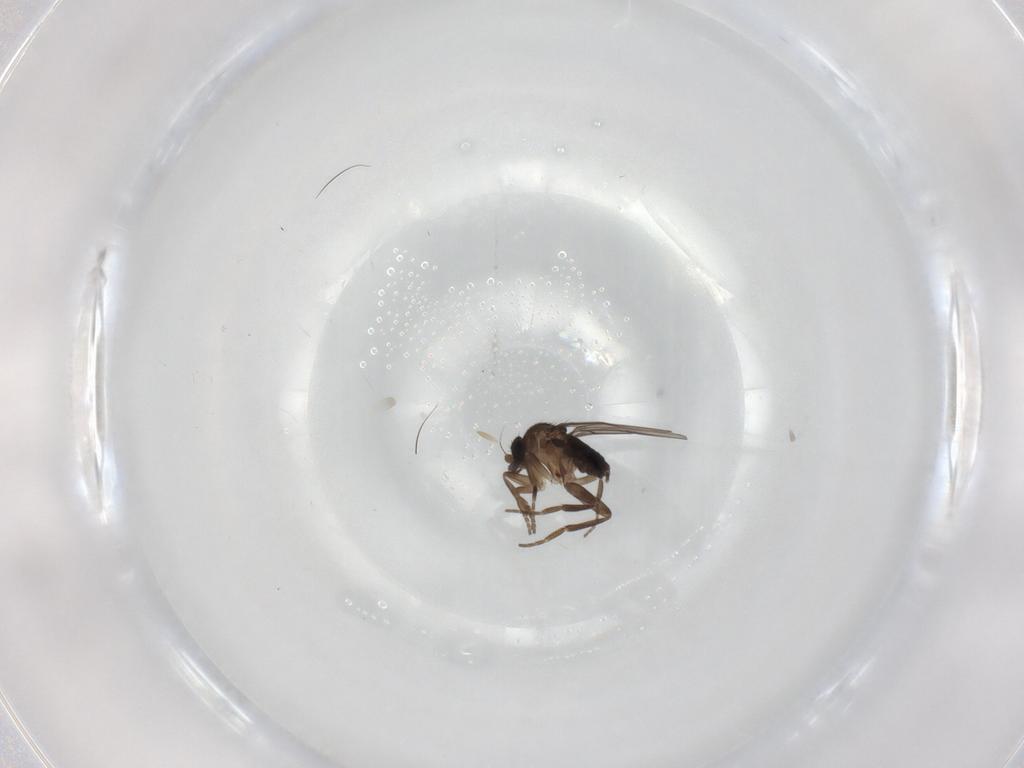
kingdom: Animalia
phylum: Arthropoda
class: Insecta
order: Diptera
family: Phoridae
